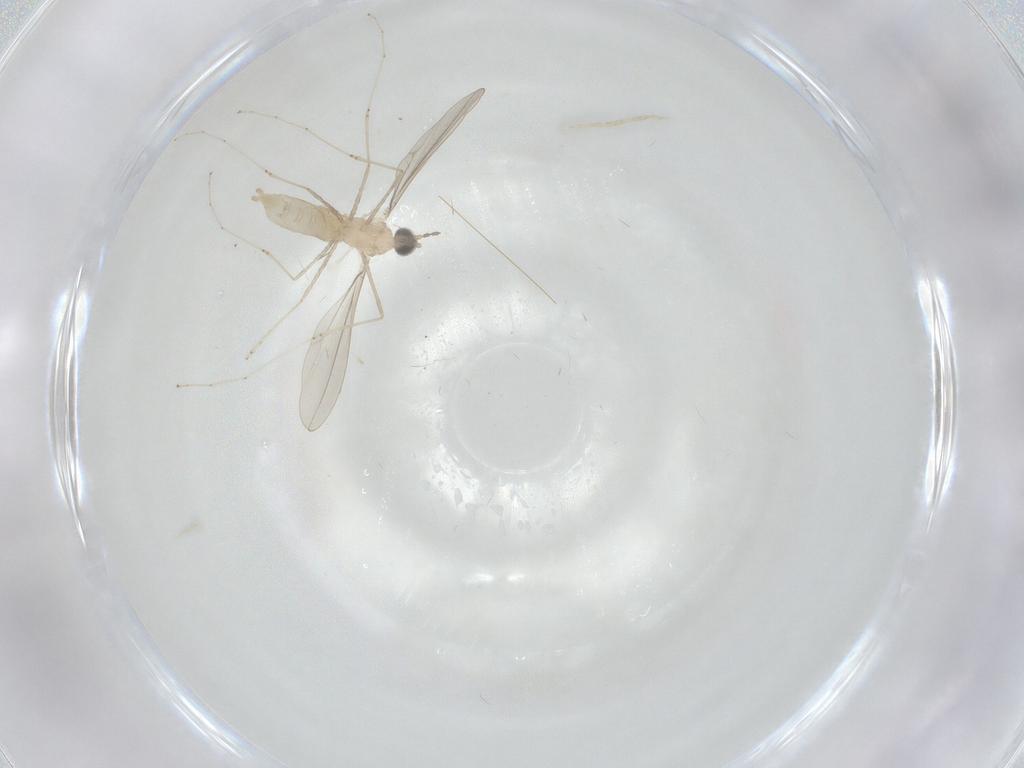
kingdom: Animalia
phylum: Arthropoda
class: Insecta
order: Diptera
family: Cecidomyiidae
